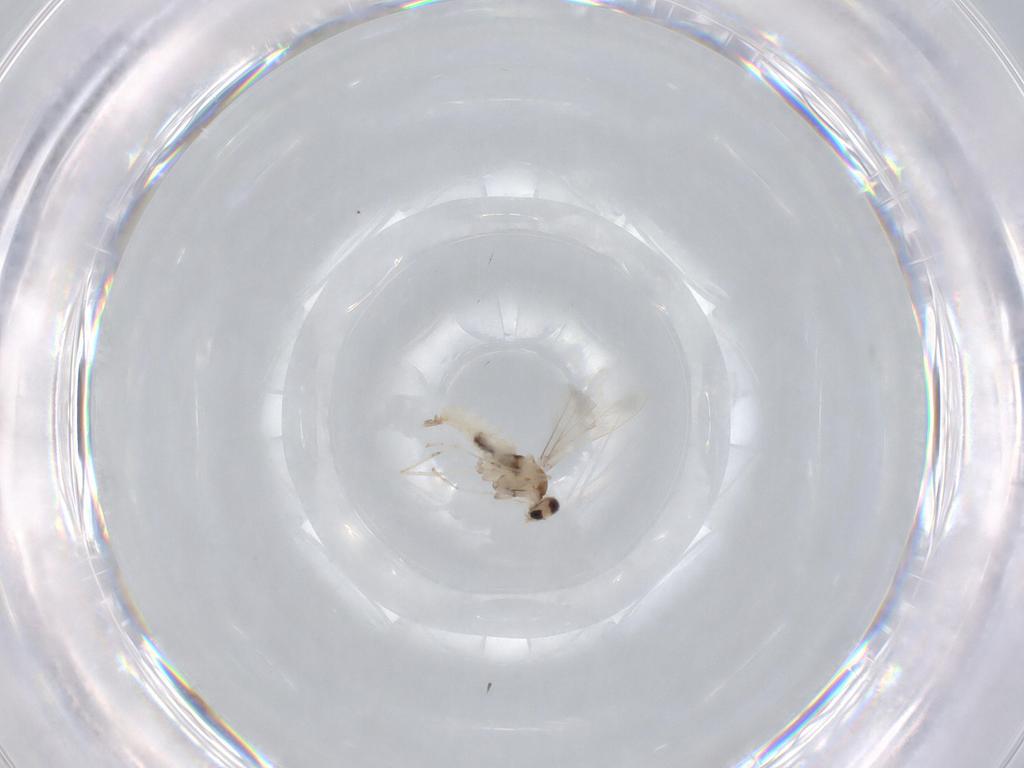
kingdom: Animalia
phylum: Arthropoda
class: Insecta
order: Diptera
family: Cecidomyiidae
